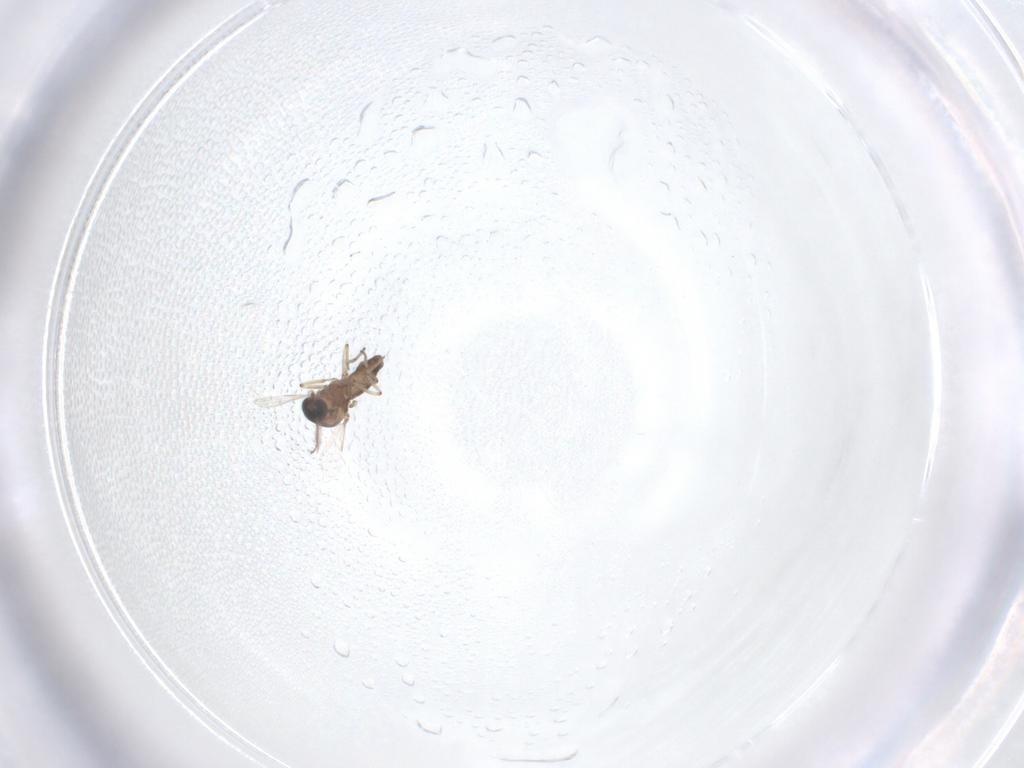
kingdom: Animalia
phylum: Arthropoda
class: Insecta
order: Diptera
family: Ceratopogonidae
